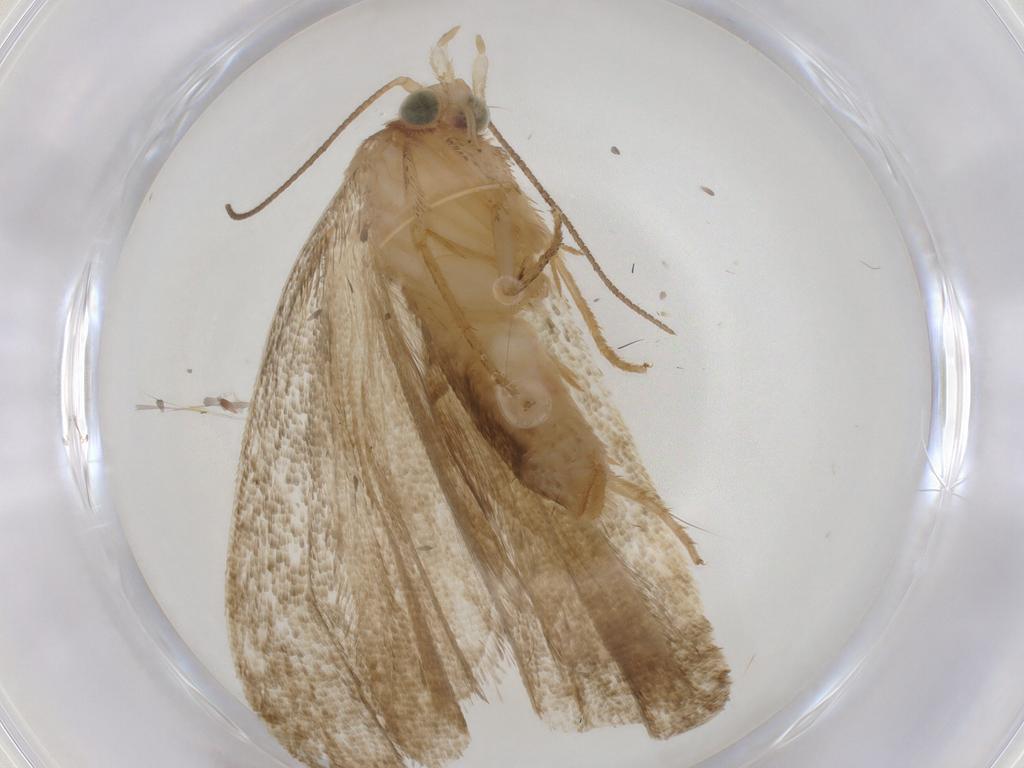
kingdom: Animalia
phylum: Arthropoda
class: Insecta
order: Lepidoptera
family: Tortricidae
